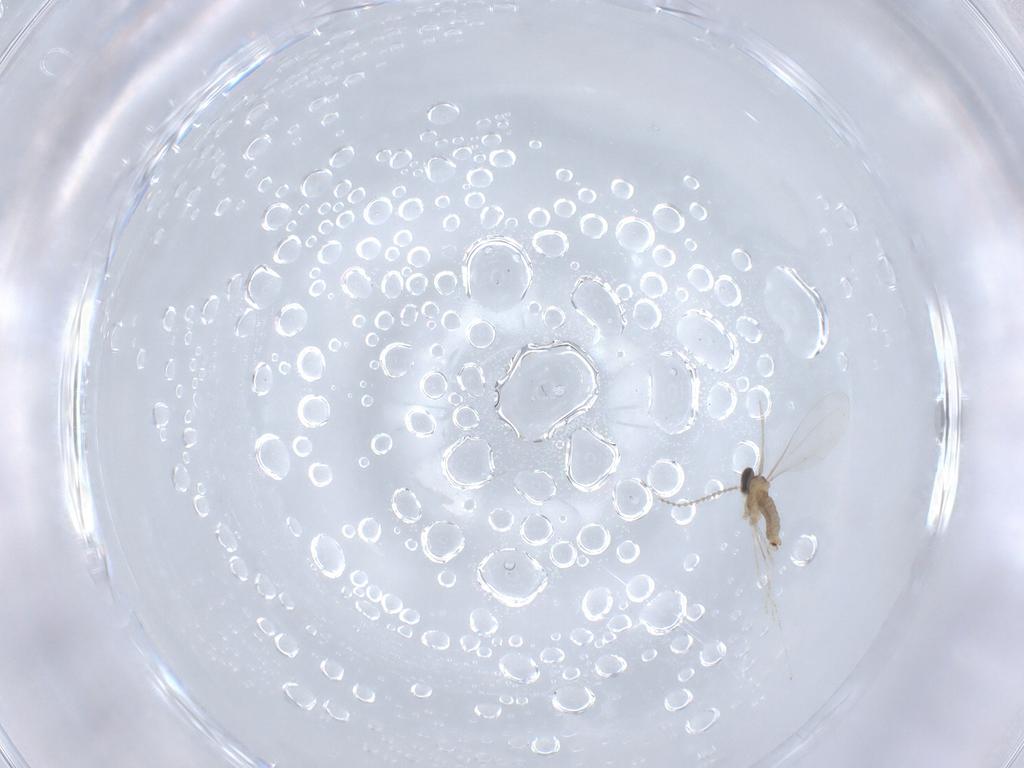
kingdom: Animalia
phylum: Arthropoda
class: Insecta
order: Diptera
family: Cecidomyiidae
